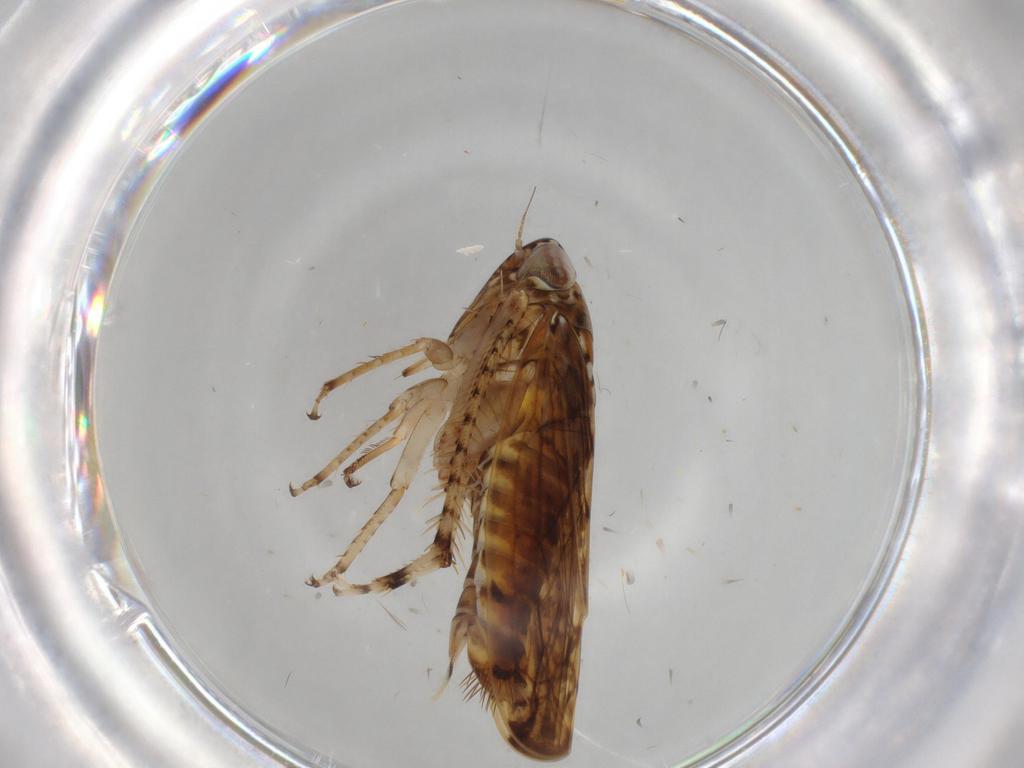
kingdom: Animalia
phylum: Arthropoda
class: Insecta
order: Hemiptera
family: Cicadellidae
